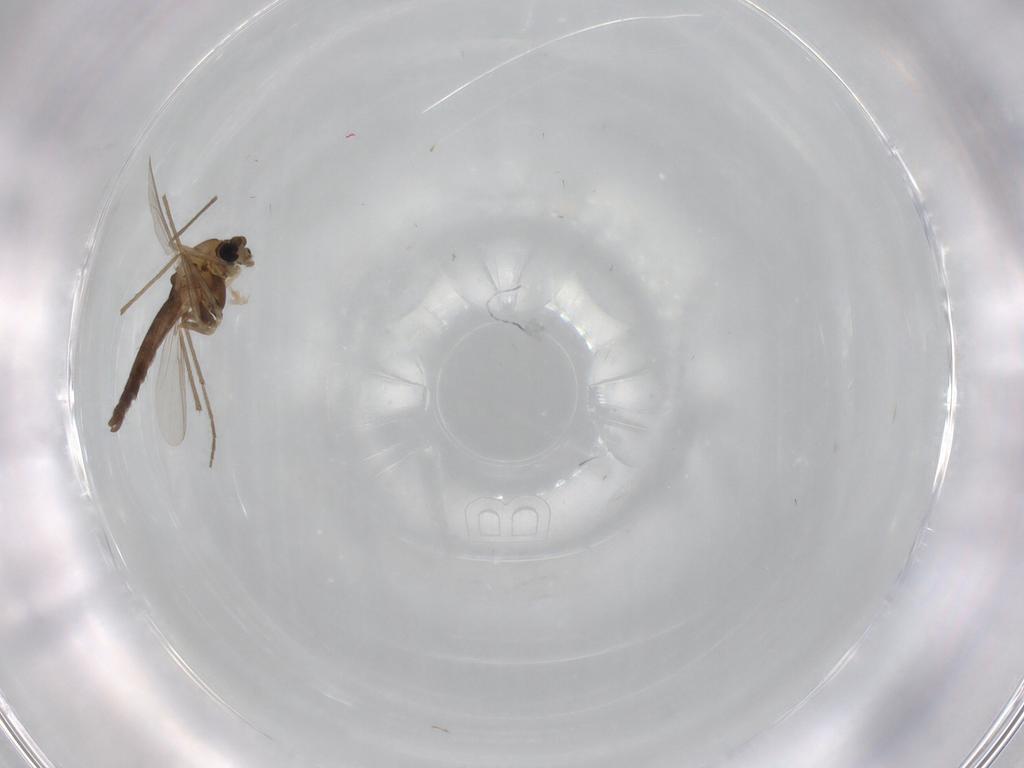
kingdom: Animalia
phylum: Arthropoda
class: Insecta
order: Diptera
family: Chironomidae
